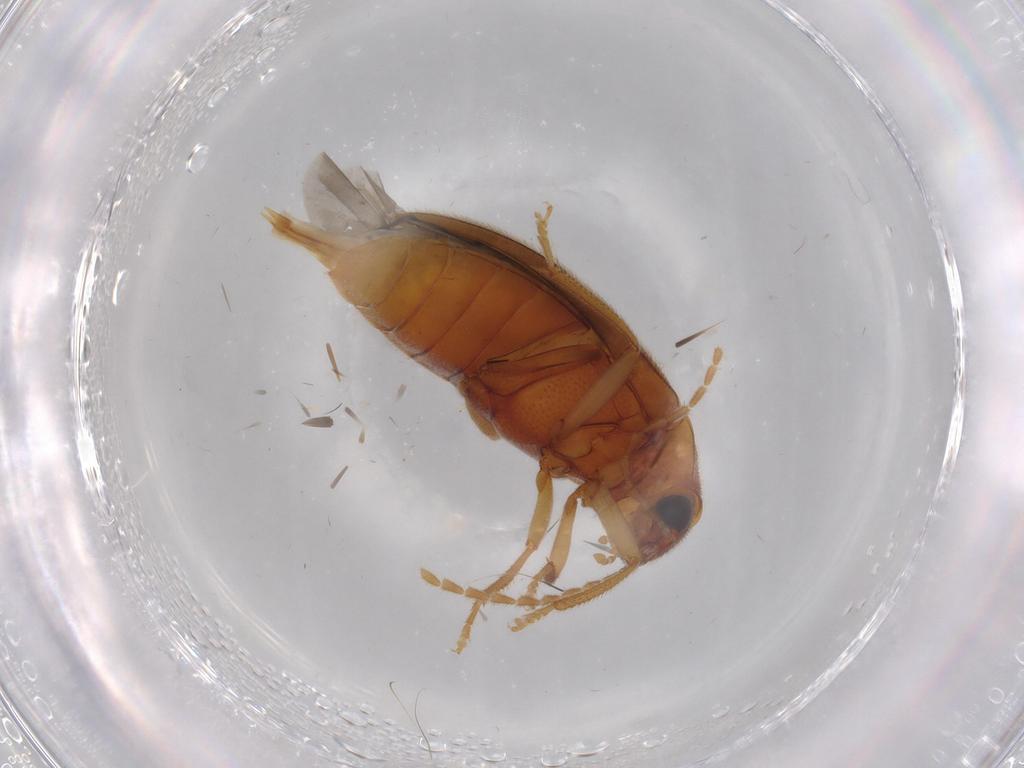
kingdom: Animalia
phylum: Arthropoda
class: Insecta
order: Coleoptera
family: Ptilodactylidae
